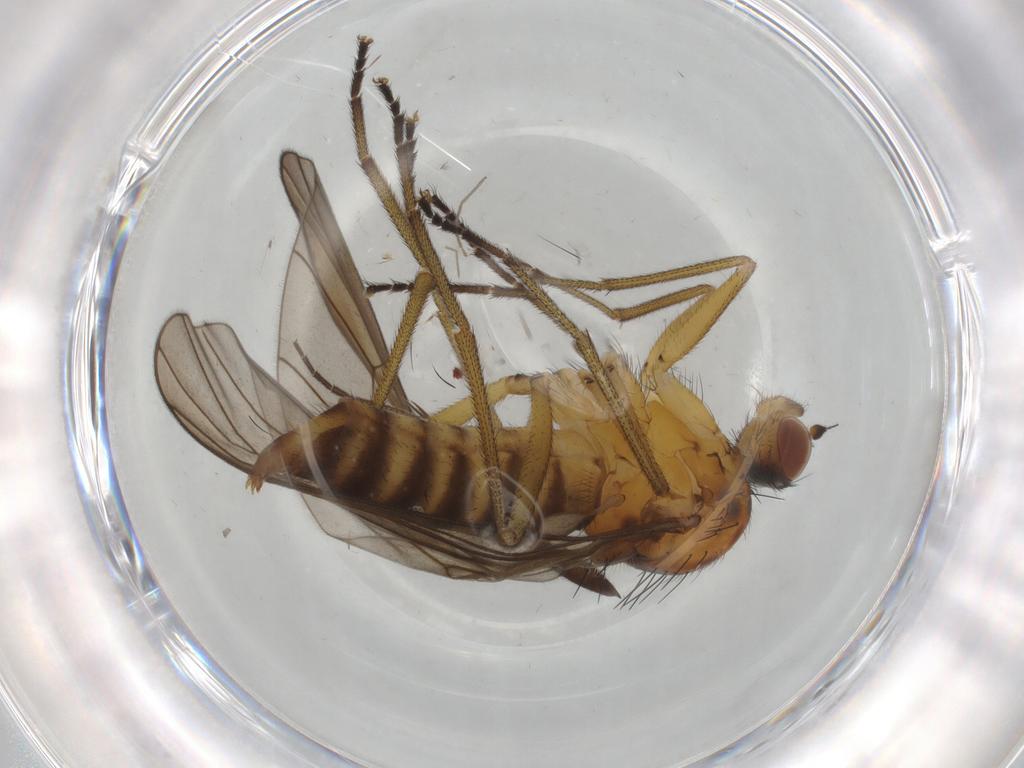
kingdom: Animalia
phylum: Arthropoda
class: Insecta
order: Diptera
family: Brachystomatidae
